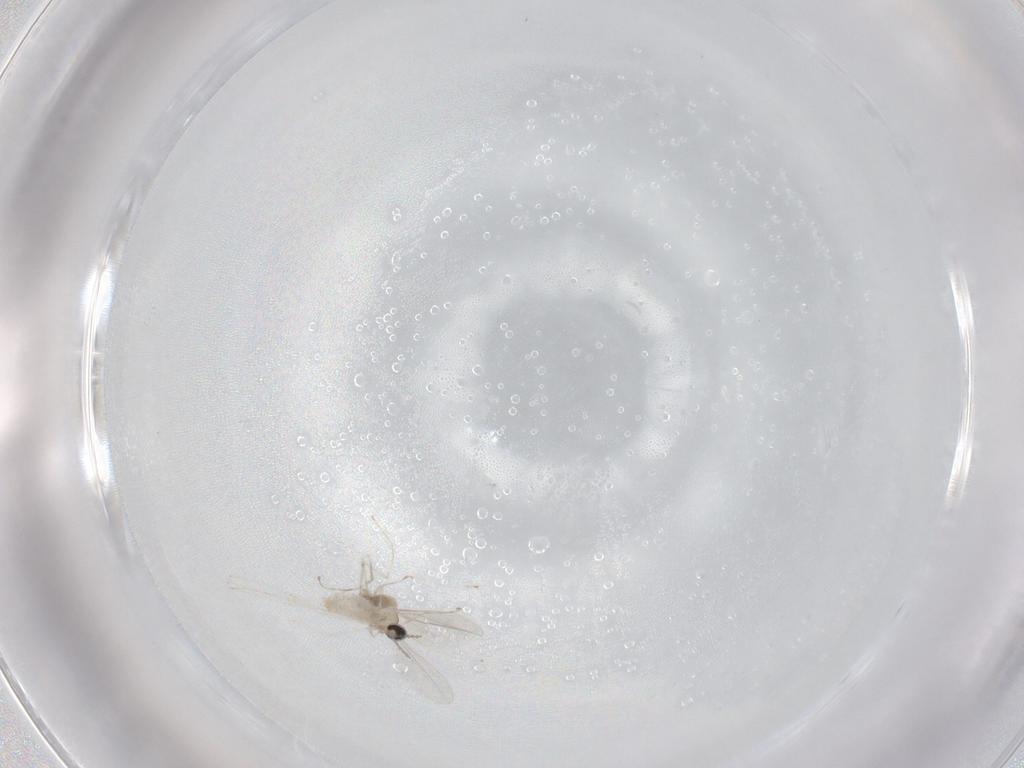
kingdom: Animalia
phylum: Arthropoda
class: Insecta
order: Diptera
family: Cecidomyiidae
